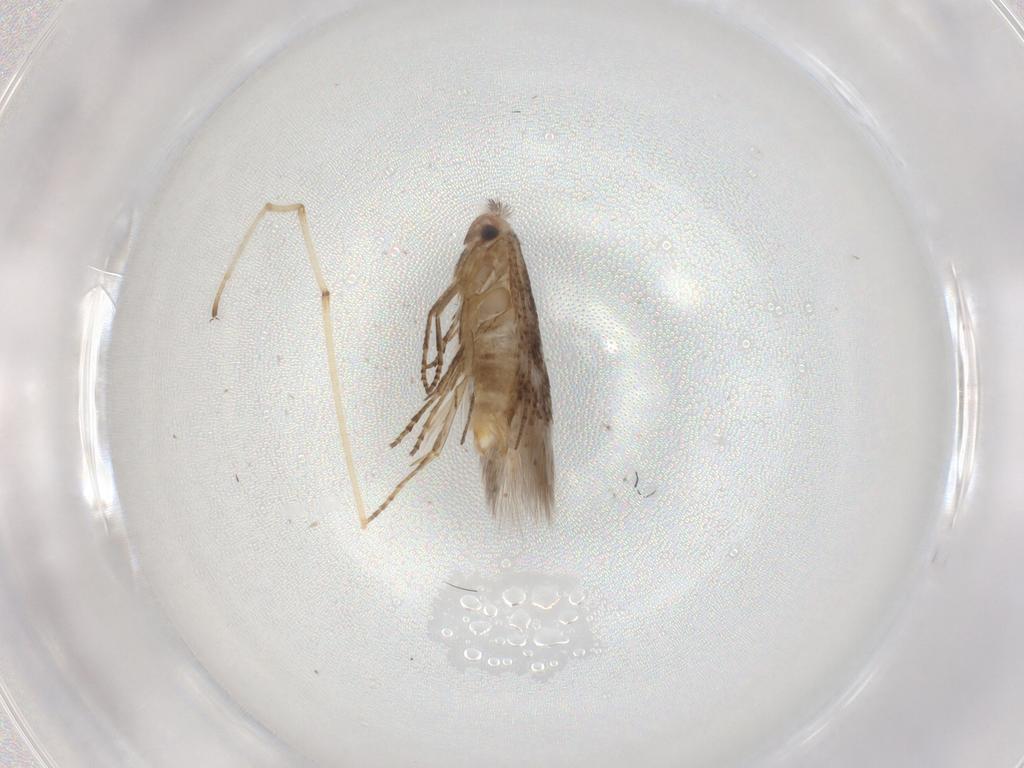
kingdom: Animalia
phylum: Arthropoda
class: Insecta
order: Lepidoptera
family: Bucculatricidae
